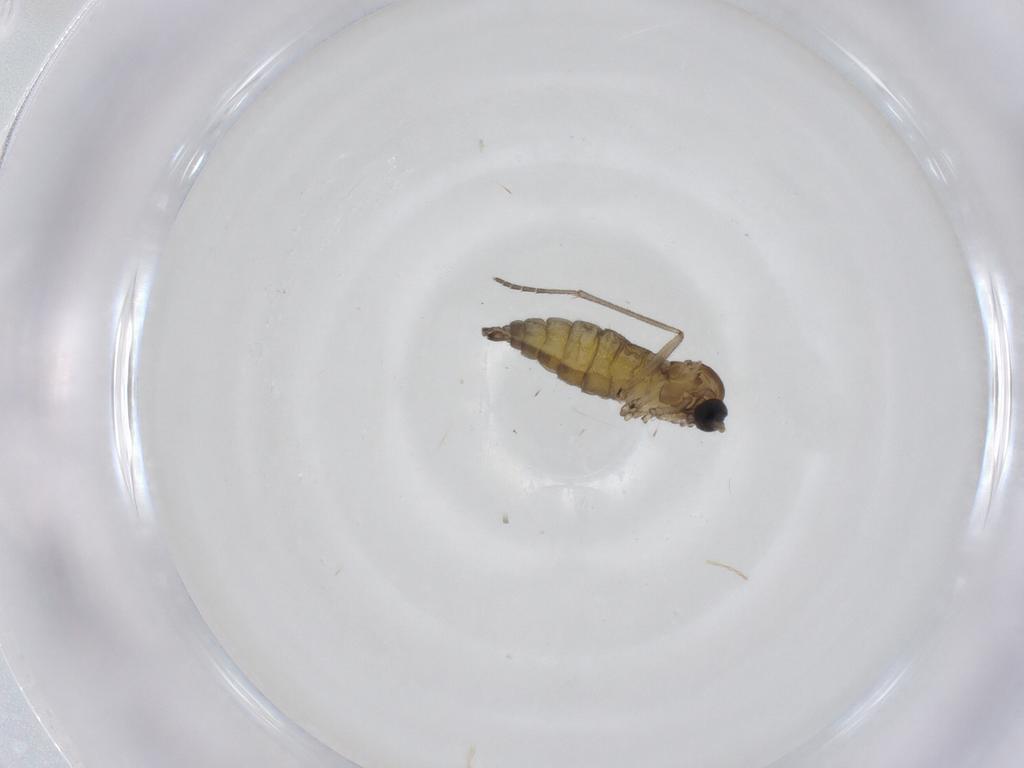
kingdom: Animalia
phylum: Arthropoda
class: Insecta
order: Diptera
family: Sciaridae
